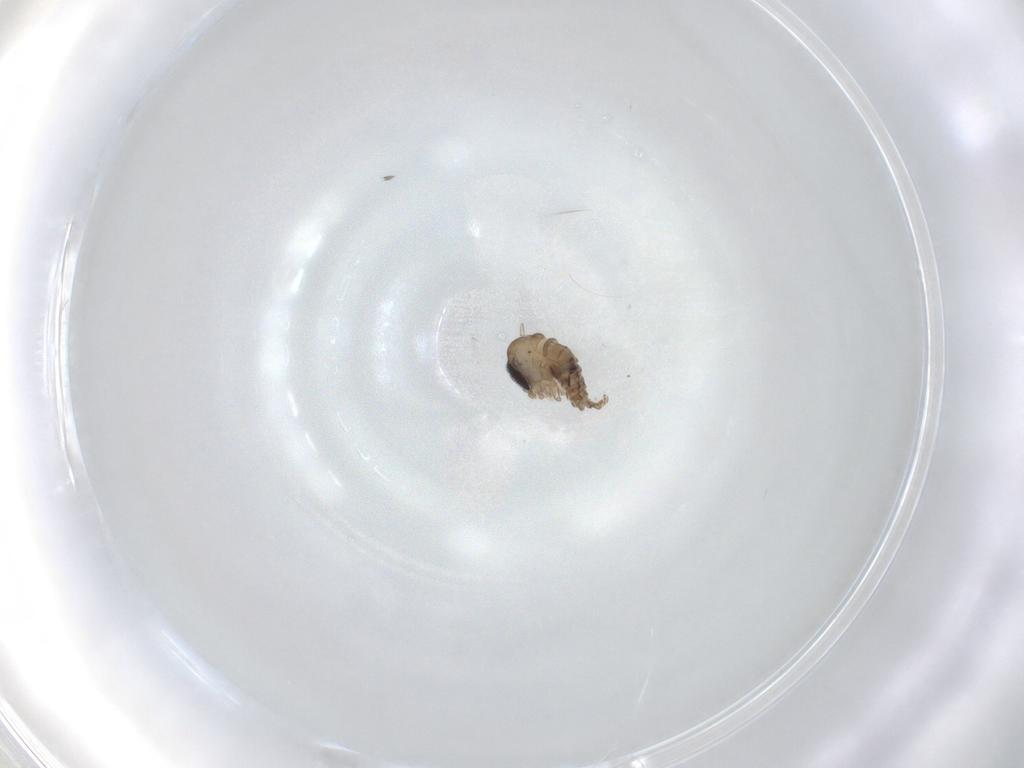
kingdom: Animalia
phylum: Arthropoda
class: Insecta
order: Diptera
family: Psychodidae
